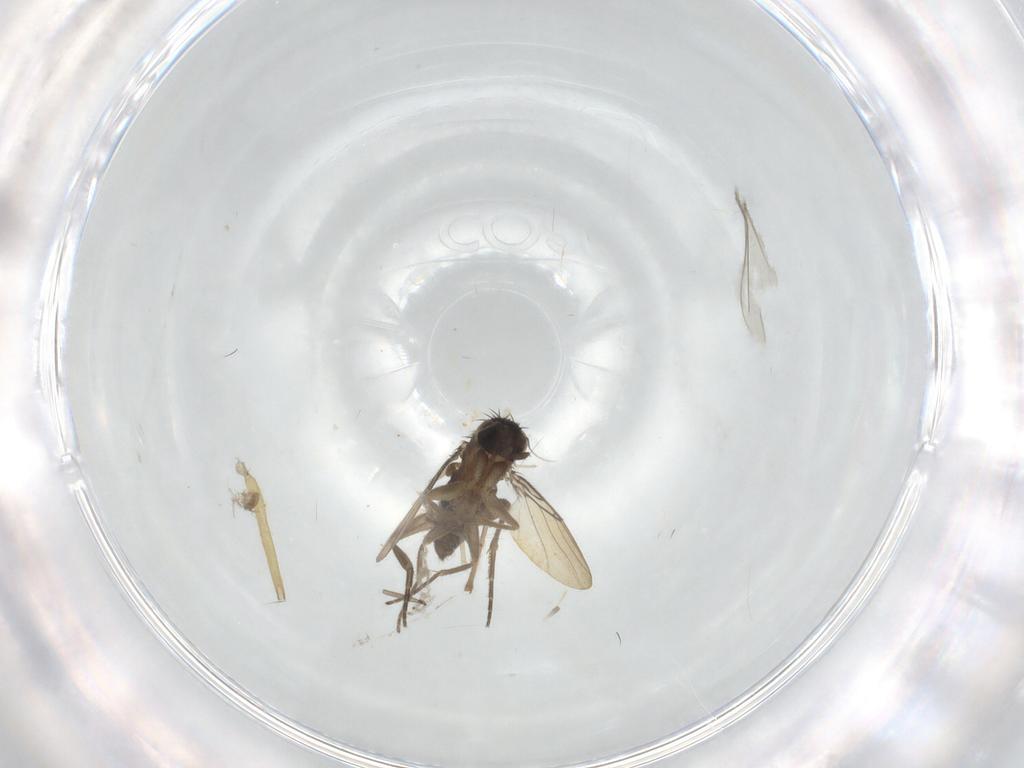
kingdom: Animalia
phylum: Arthropoda
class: Insecta
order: Diptera
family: Phoridae
